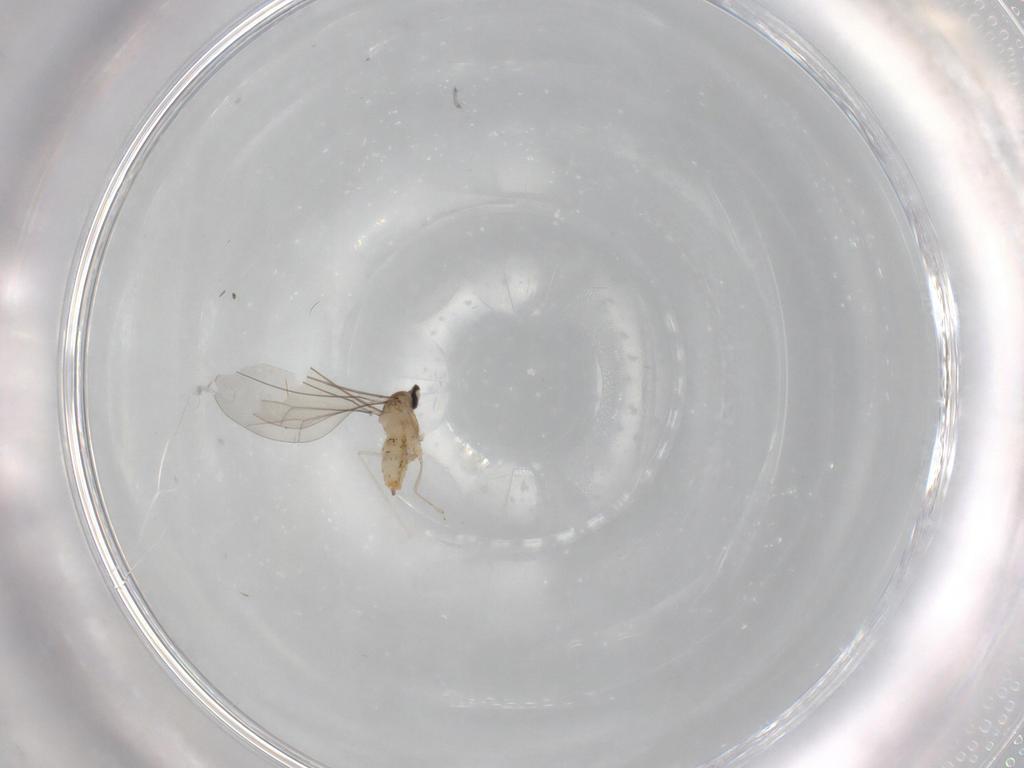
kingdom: Animalia
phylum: Arthropoda
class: Insecta
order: Diptera
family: Cecidomyiidae
